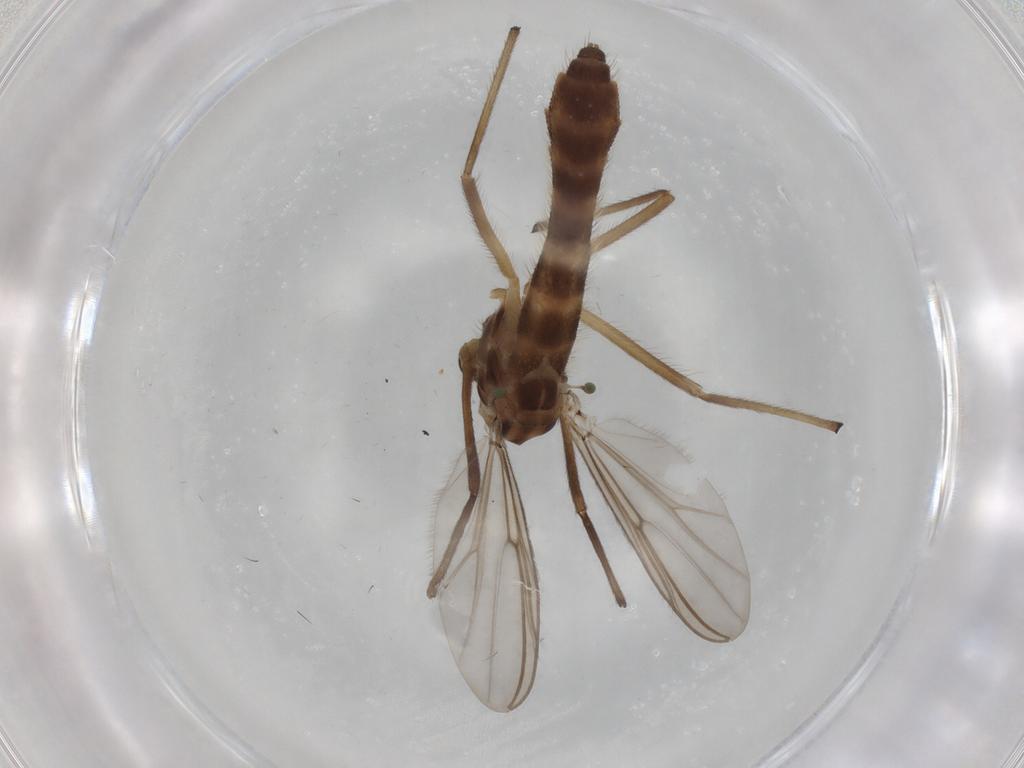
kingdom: Animalia
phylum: Arthropoda
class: Insecta
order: Diptera
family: Cecidomyiidae
